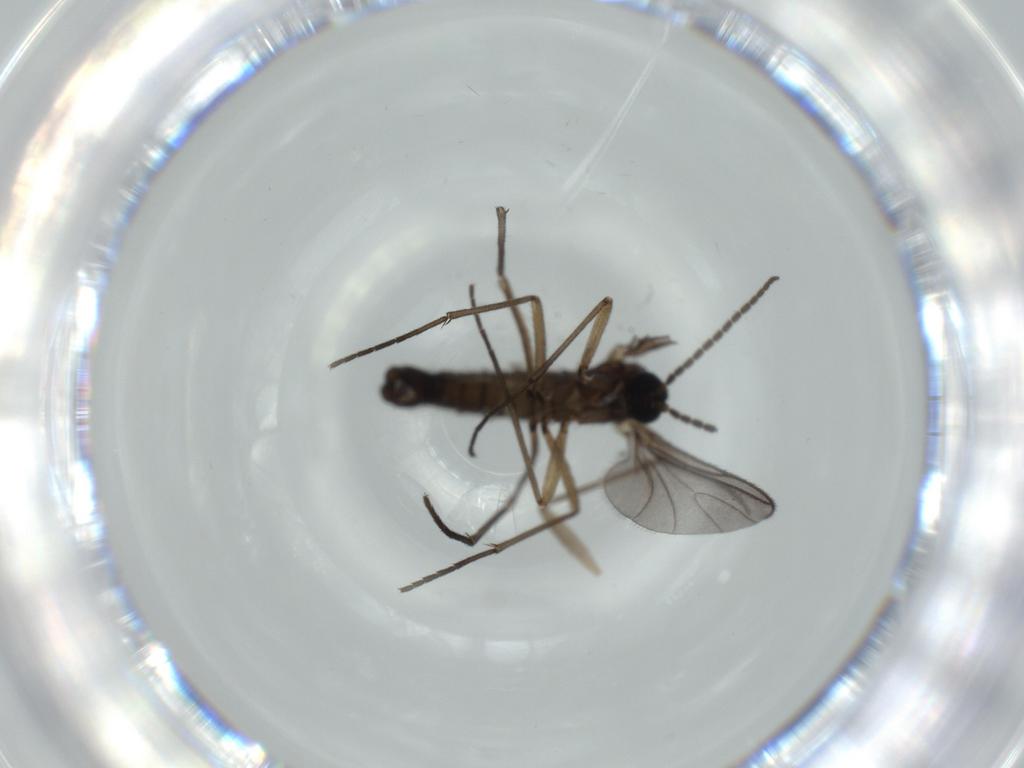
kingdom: Animalia
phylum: Arthropoda
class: Insecta
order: Diptera
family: Sciaridae
